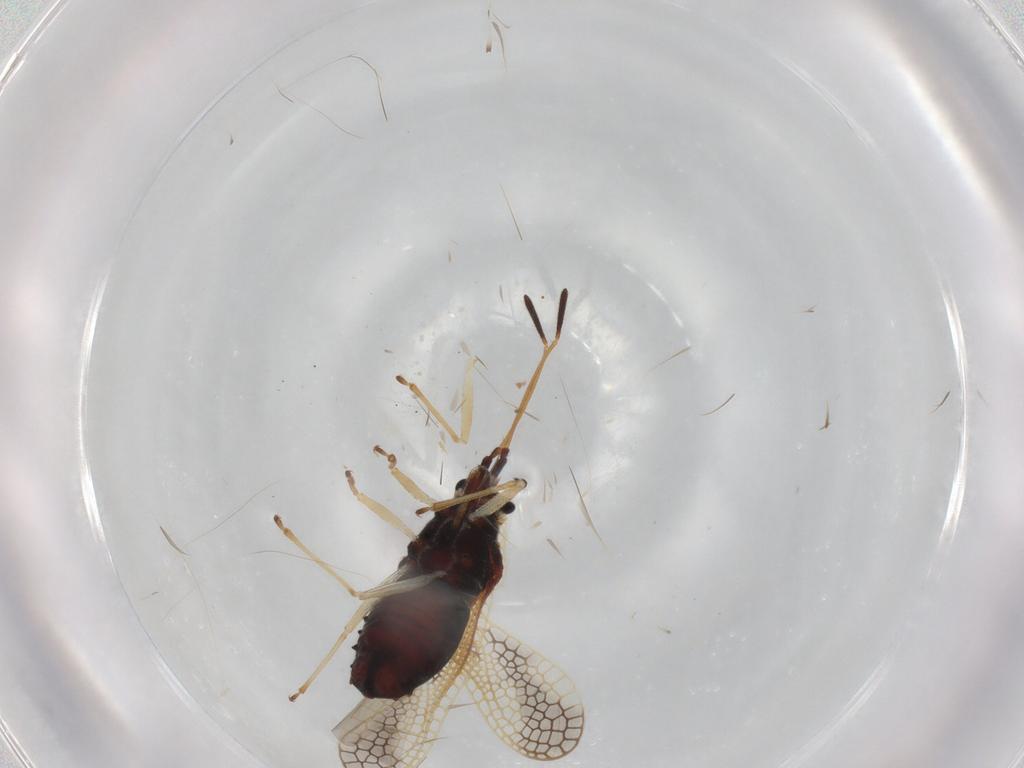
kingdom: Animalia
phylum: Arthropoda
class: Insecta
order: Hemiptera
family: Tingidae
